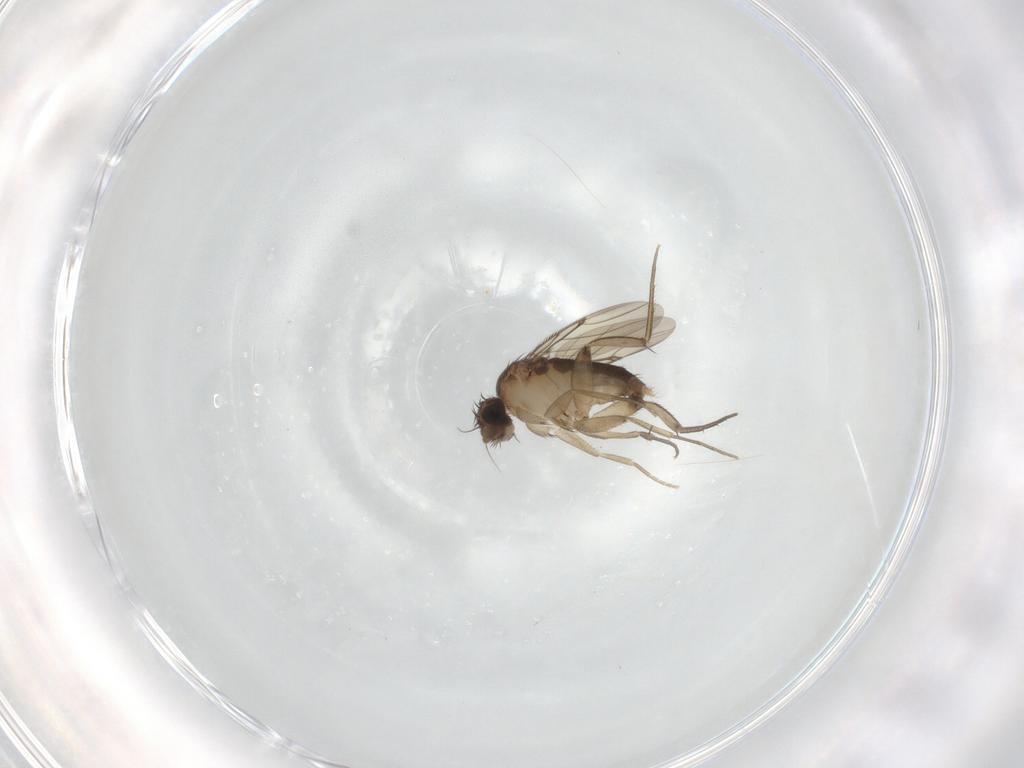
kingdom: Animalia
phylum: Arthropoda
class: Insecta
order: Diptera
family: Phoridae
